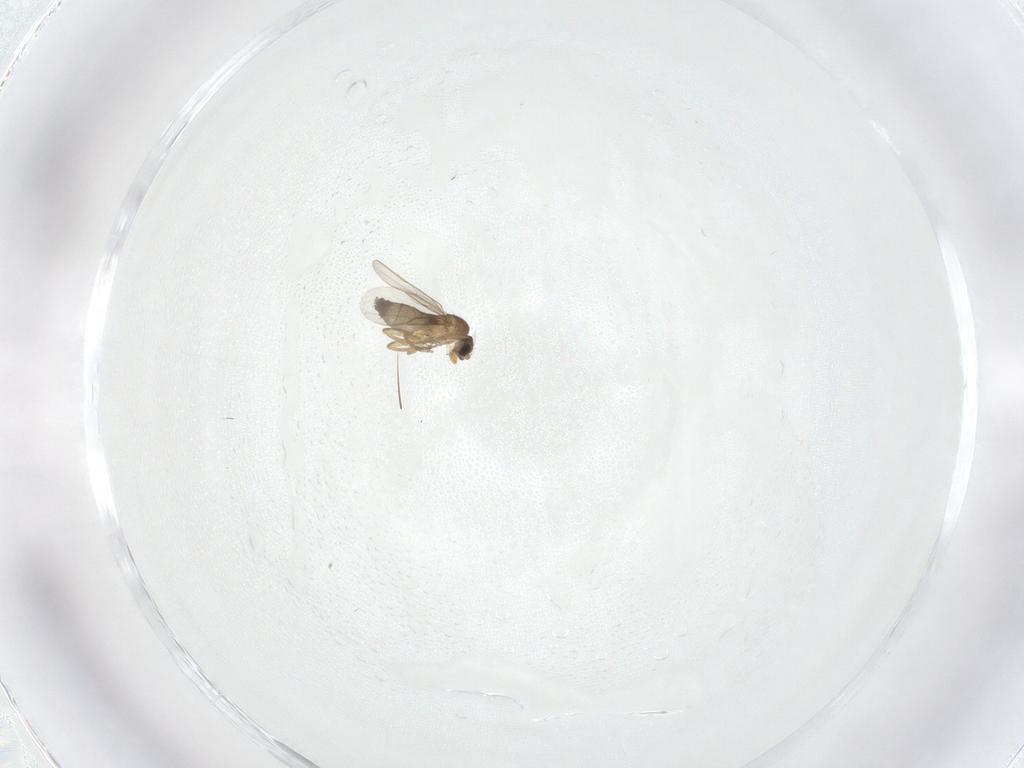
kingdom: Animalia
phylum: Arthropoda
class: Insecta
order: Diptera
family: Phoridae
